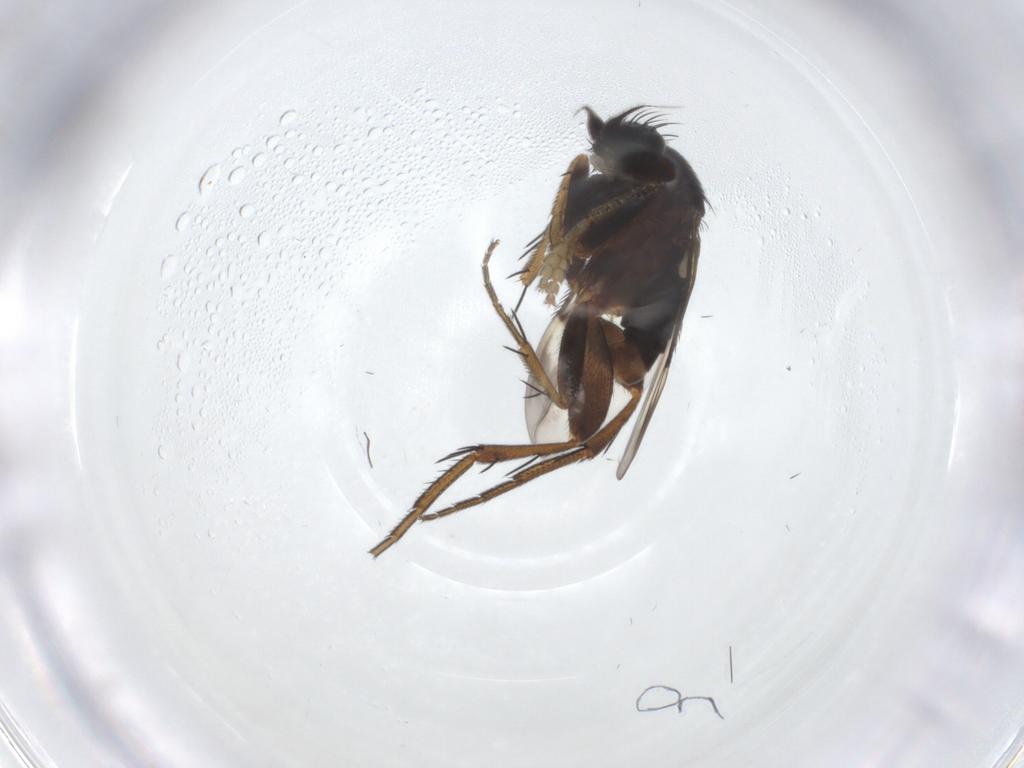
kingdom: Animalia
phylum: Arthropoda
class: Insecta
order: Diptera
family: Phoridae
